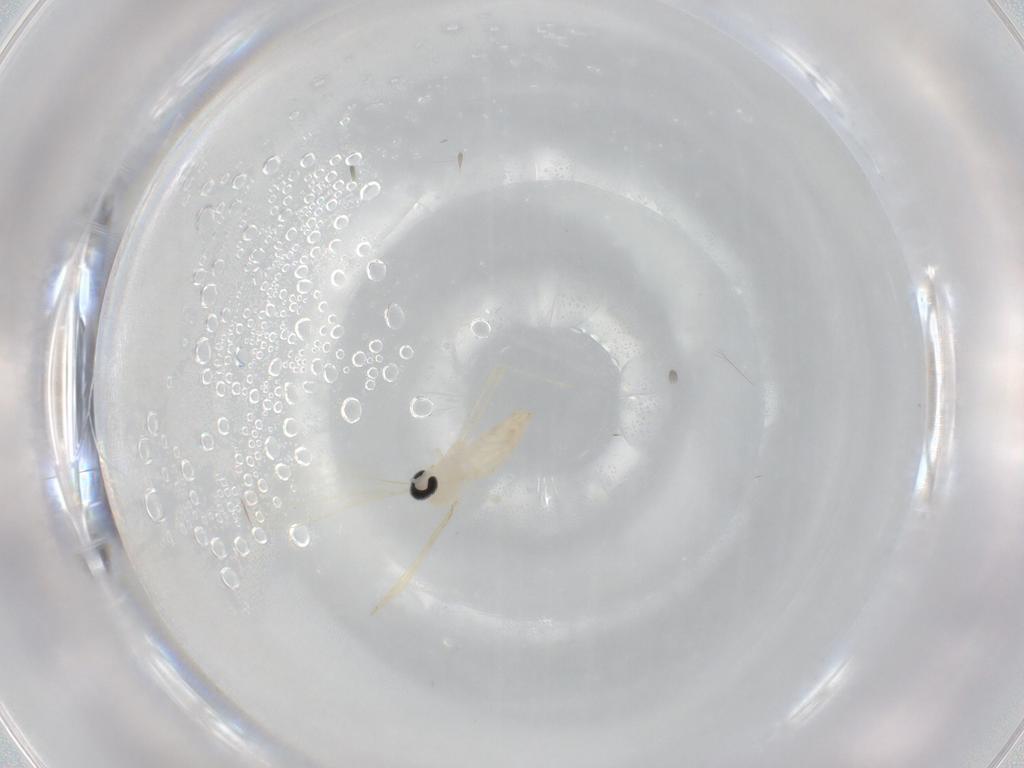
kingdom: Animalia
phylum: Arthropoda
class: Insecta
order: Diptera
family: Cecidomyiidae
